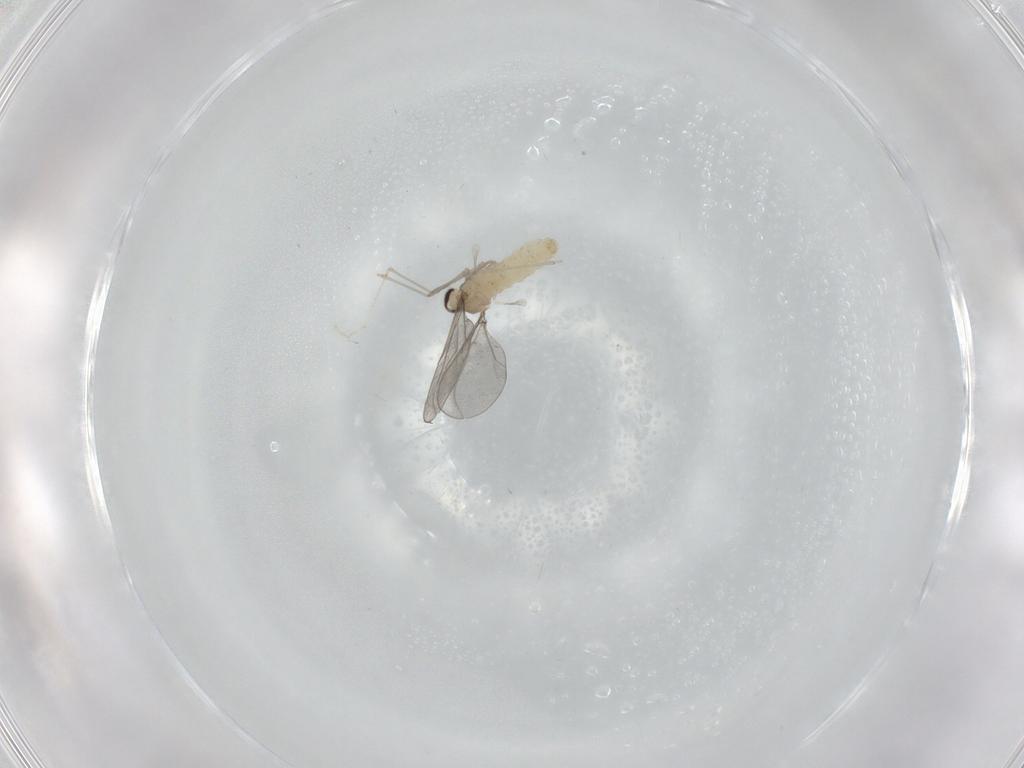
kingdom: Animalia
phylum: Arthropoda
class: Insecta
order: Diptera
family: Cecidomyiidae
